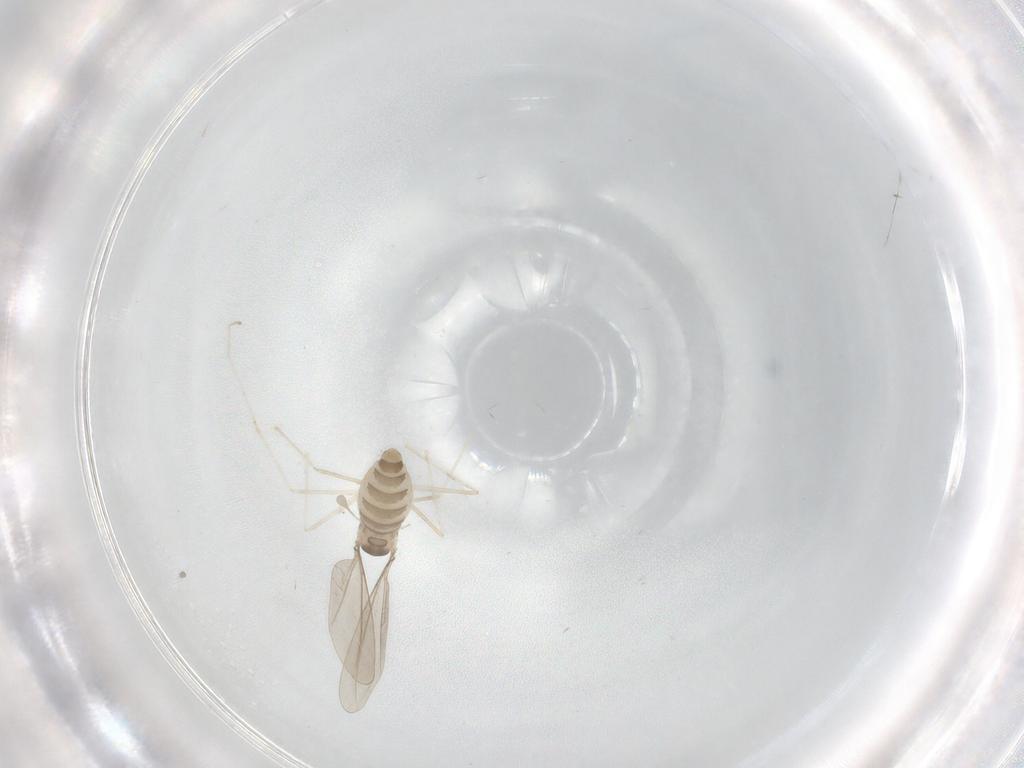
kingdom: Animalia
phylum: Arthropoda
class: Insecta
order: Diptera
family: Cecidomyiidae
